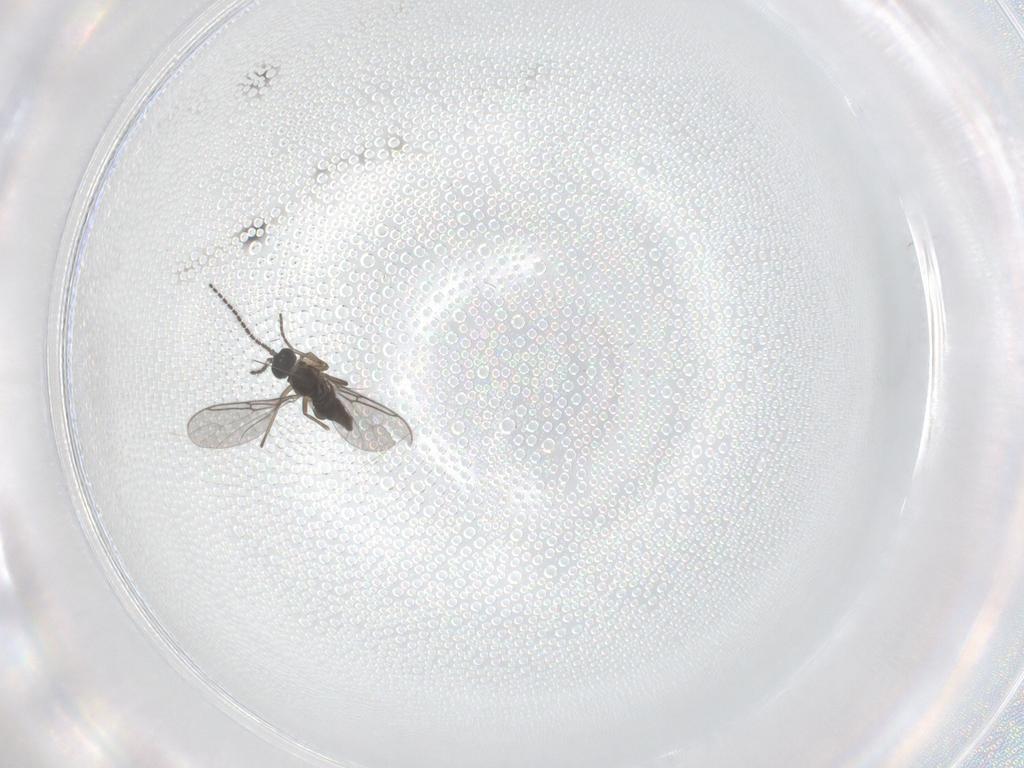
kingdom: Animalia
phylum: Arthropoda
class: Insecta
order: Diptera
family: Sciaridae
